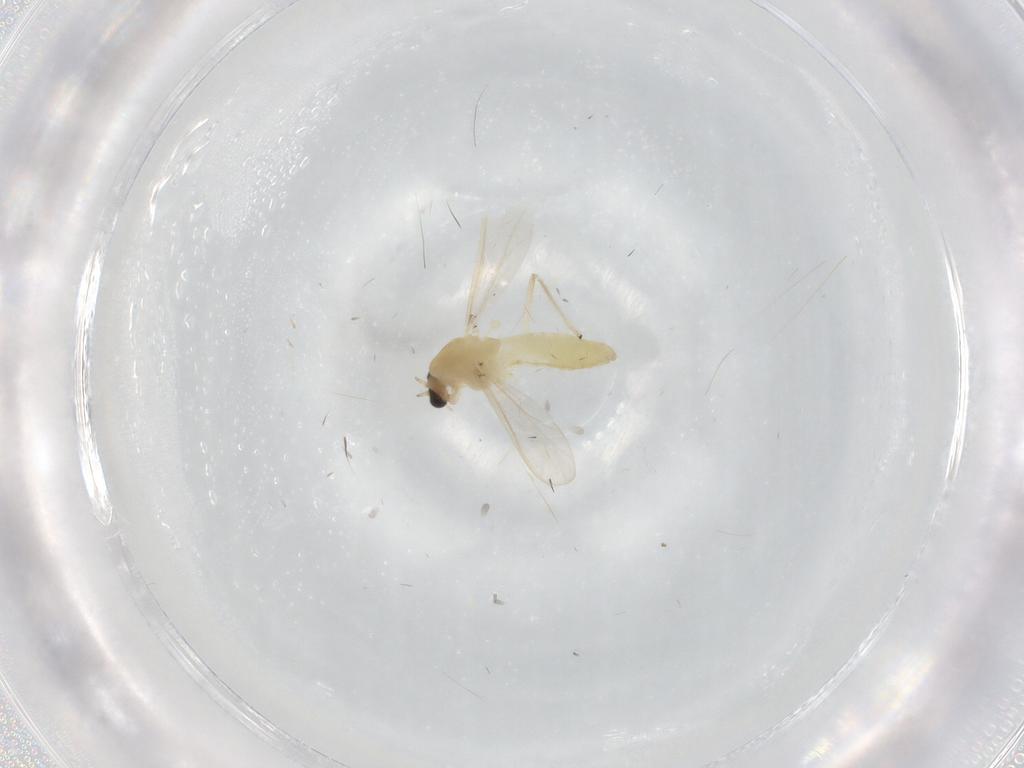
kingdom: Animalia
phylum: Arthropoda
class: Insecta
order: Diptera
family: Chironomidae
